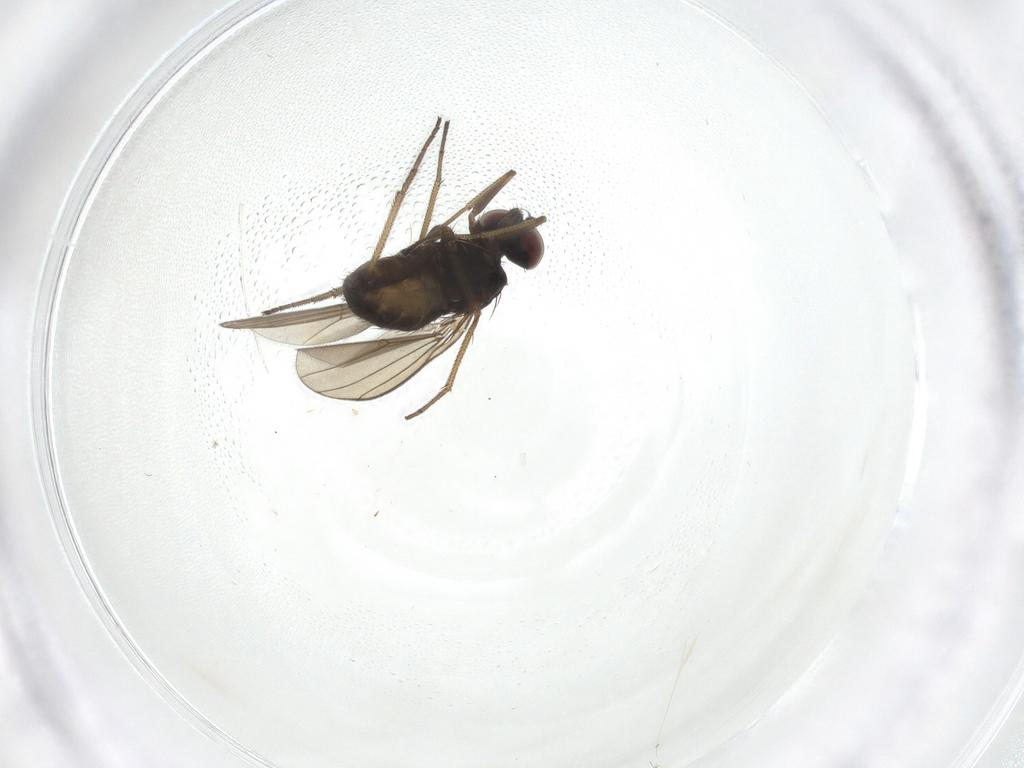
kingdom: Animalia
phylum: Arthropoda
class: Insecta
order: Diptera
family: Dolichopodidae
